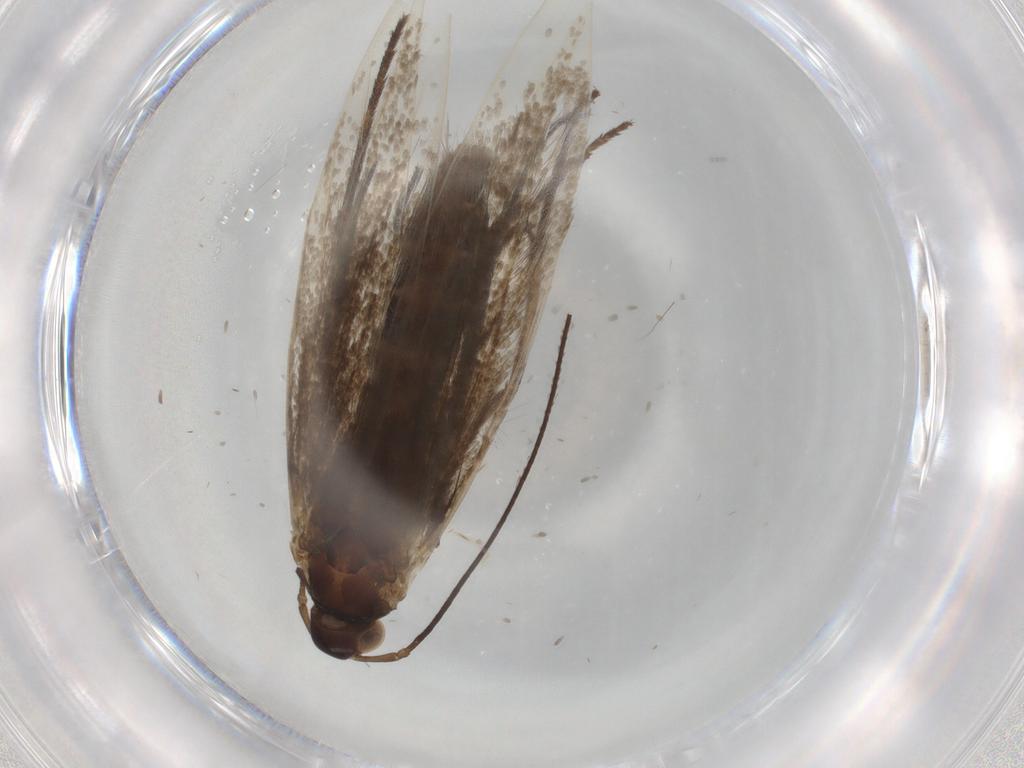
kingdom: Animalia
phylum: Arthropoda
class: Insecta
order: Lepidoptera
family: Coleophoridae
